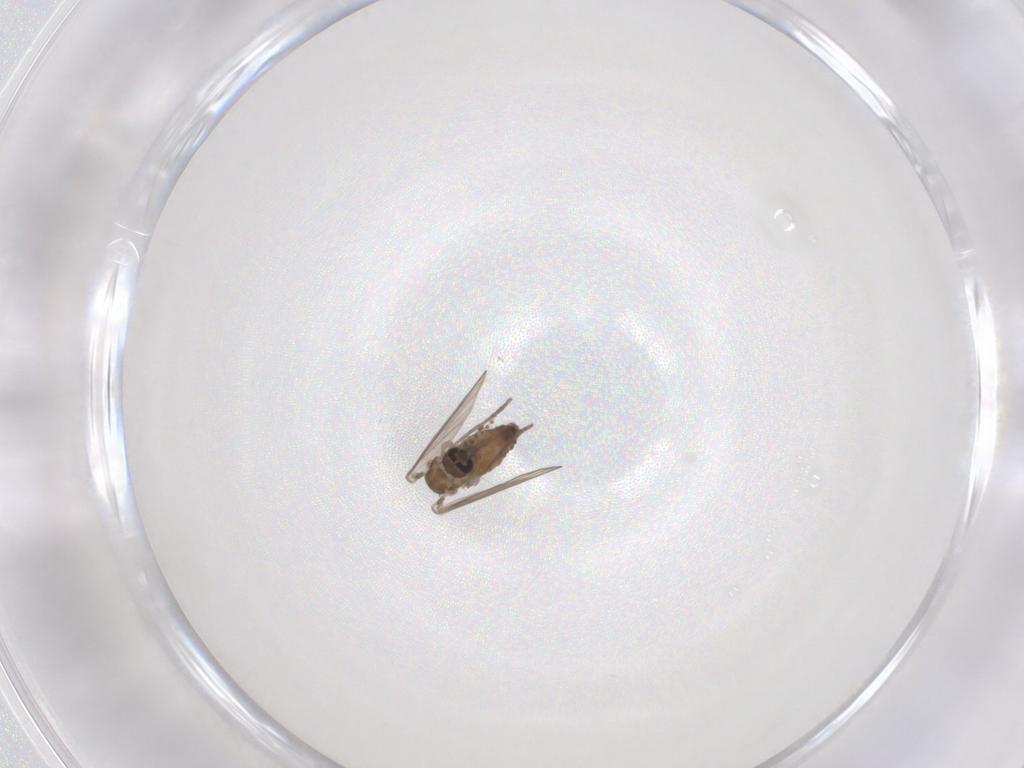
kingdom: Animalia
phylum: Arthropoda
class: Insecta
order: Diptera
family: Psychodidae
